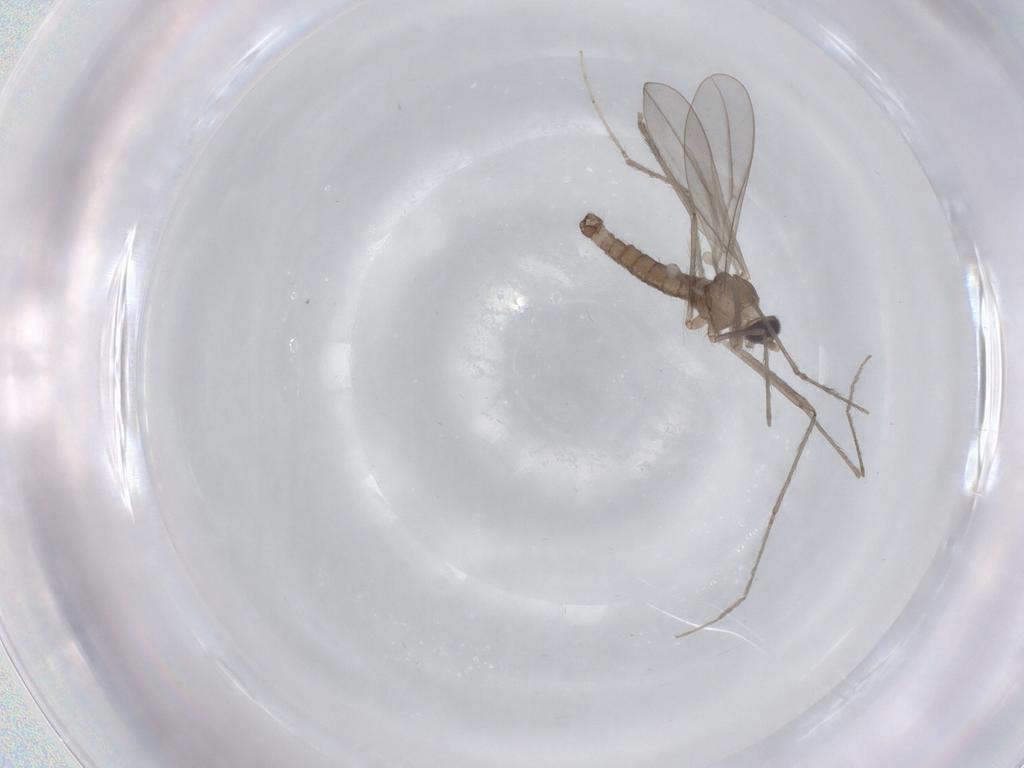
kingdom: Animalia
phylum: Arthropoda
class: Insecta
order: Diptera
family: Cecidomyiidae
